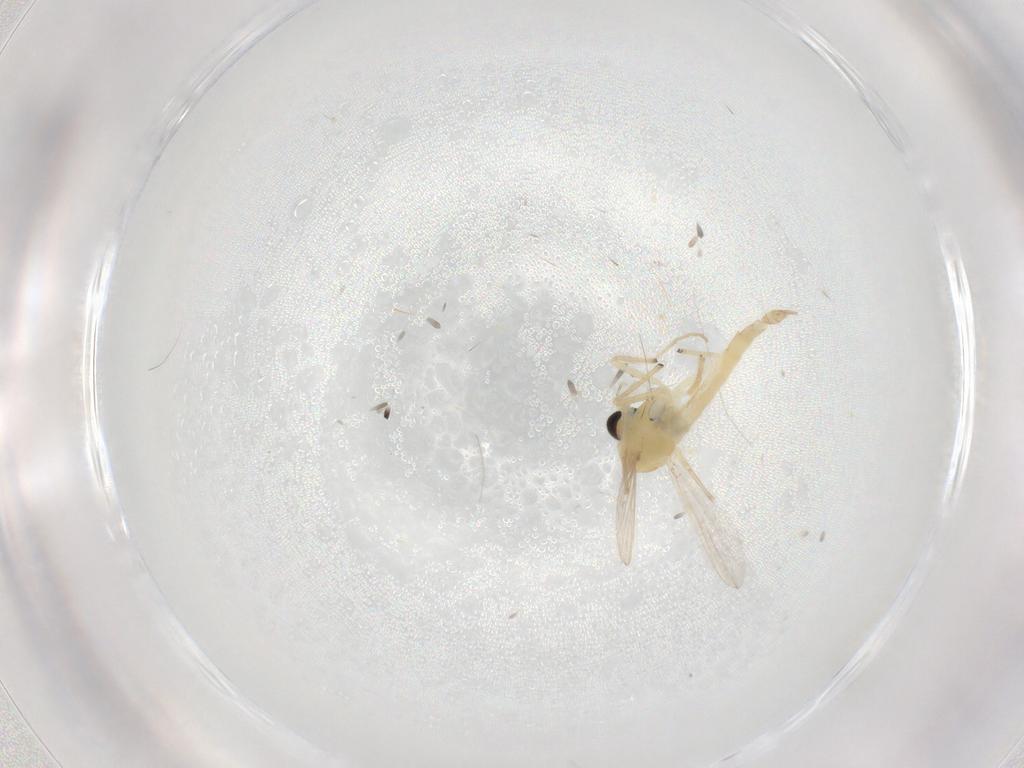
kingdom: Animalia
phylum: Arthropoda
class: Insecta
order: Diptera
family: Chironomidae
